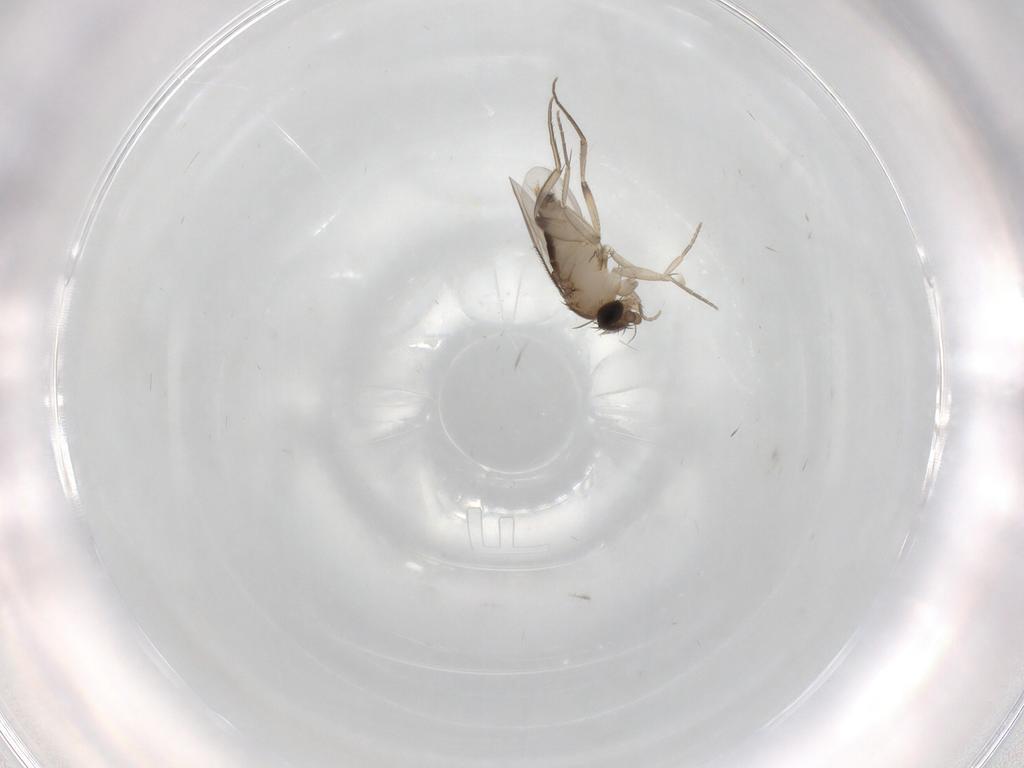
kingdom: Animalia
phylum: Arthropoda
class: Insecta
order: Diptera
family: Phoridae
